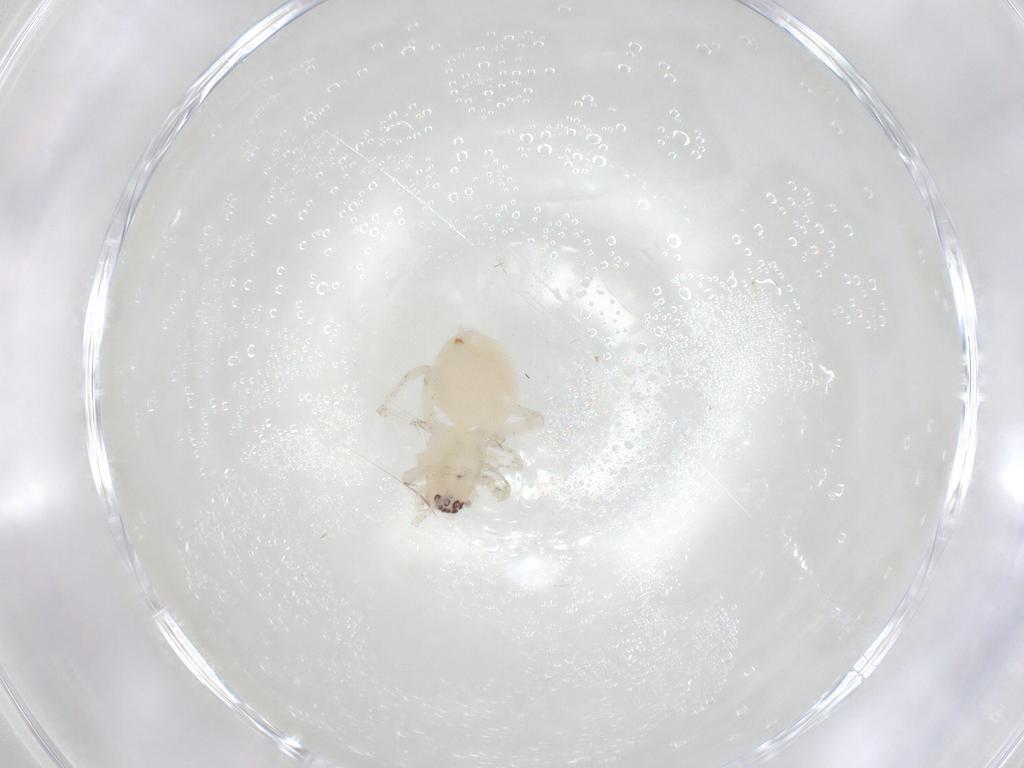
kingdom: Animalia
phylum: Arthropoda
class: Arachnida
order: Araneae
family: Anyphaenidae
